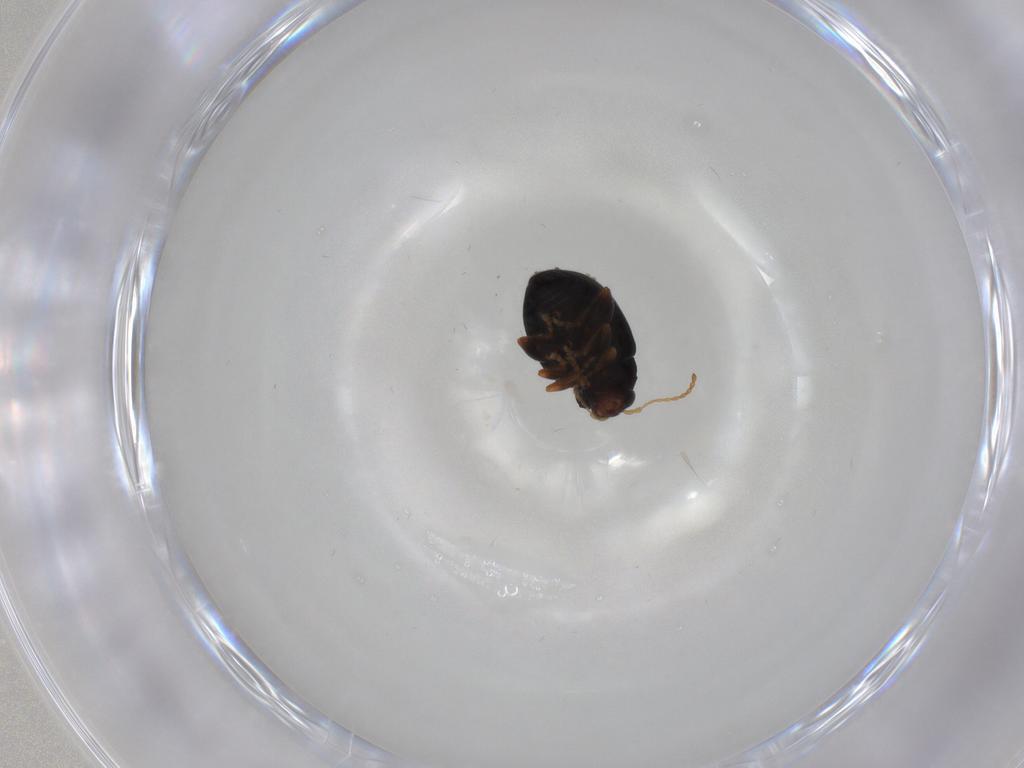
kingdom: Animalia
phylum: Arthropoda
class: Insecta
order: Coleoptera
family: Chrysomelidae
